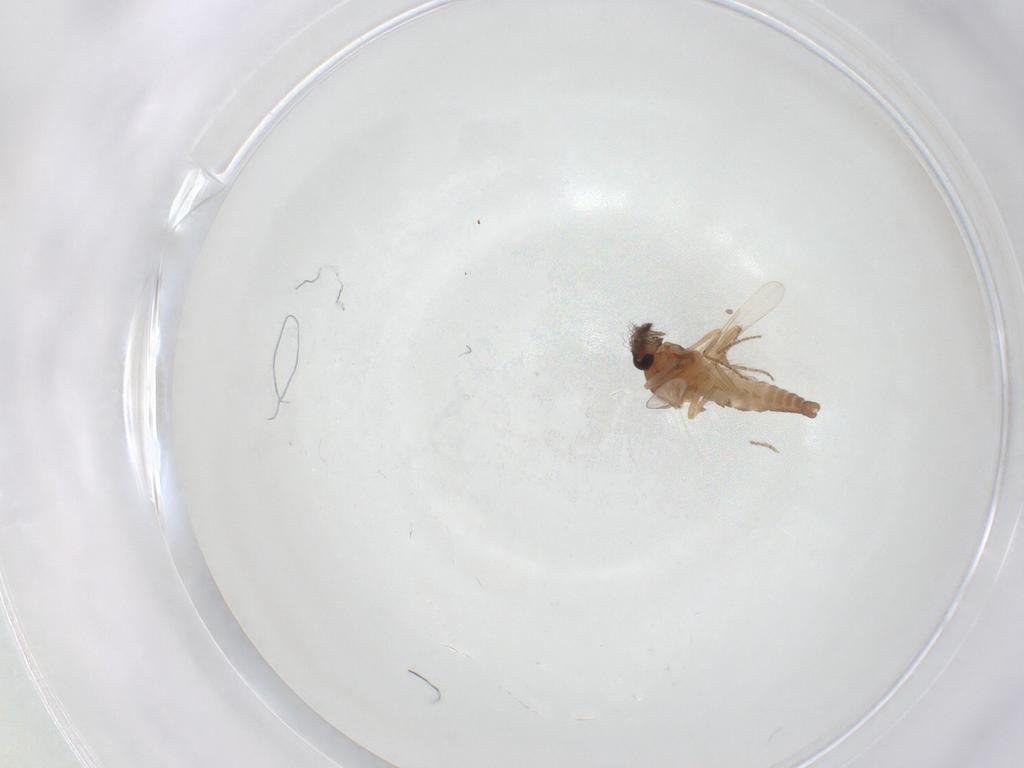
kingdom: Animalia
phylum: Arthropoda
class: Insecta
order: Diptera
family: Ceratopogonidae
